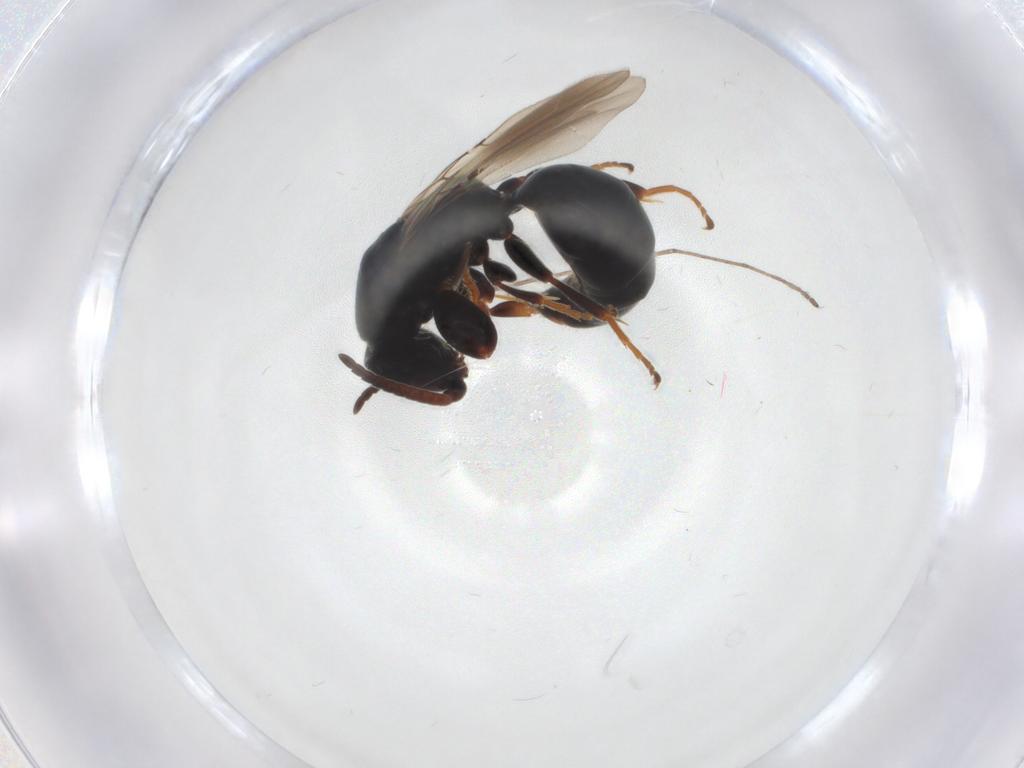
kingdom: Animalia
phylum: Arthropoda
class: Insecta
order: Hymenoptera
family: Bethylidae
